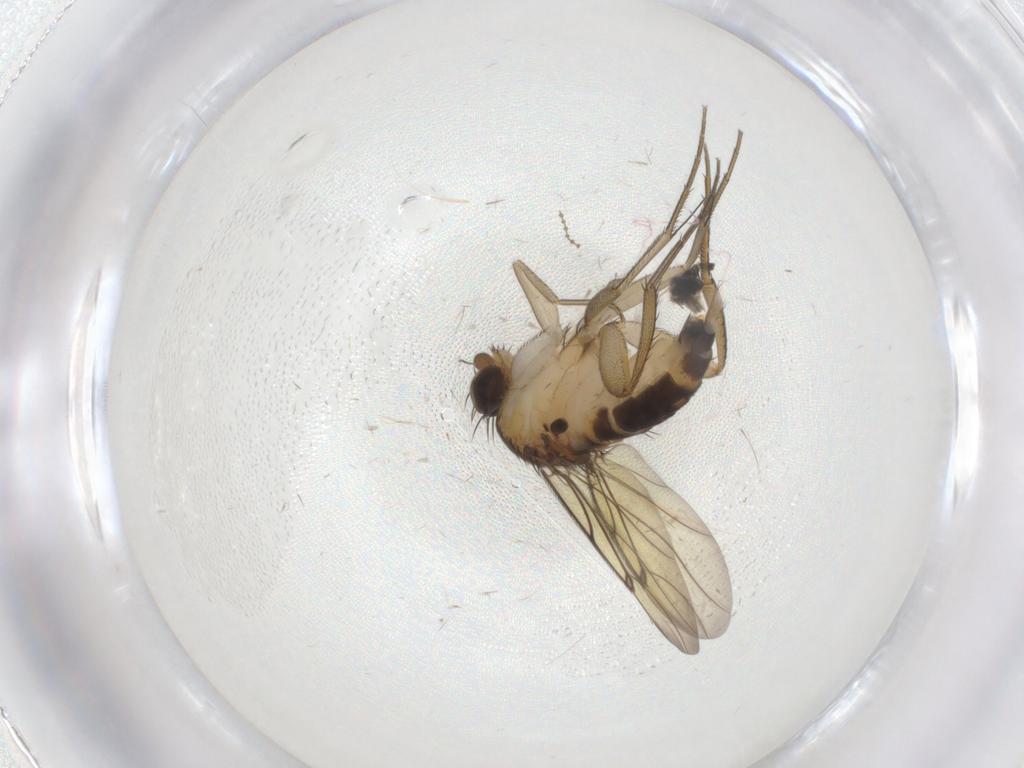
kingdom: Animalia
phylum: Arthropoda
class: Insecta
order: Diptera
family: Phoridae
